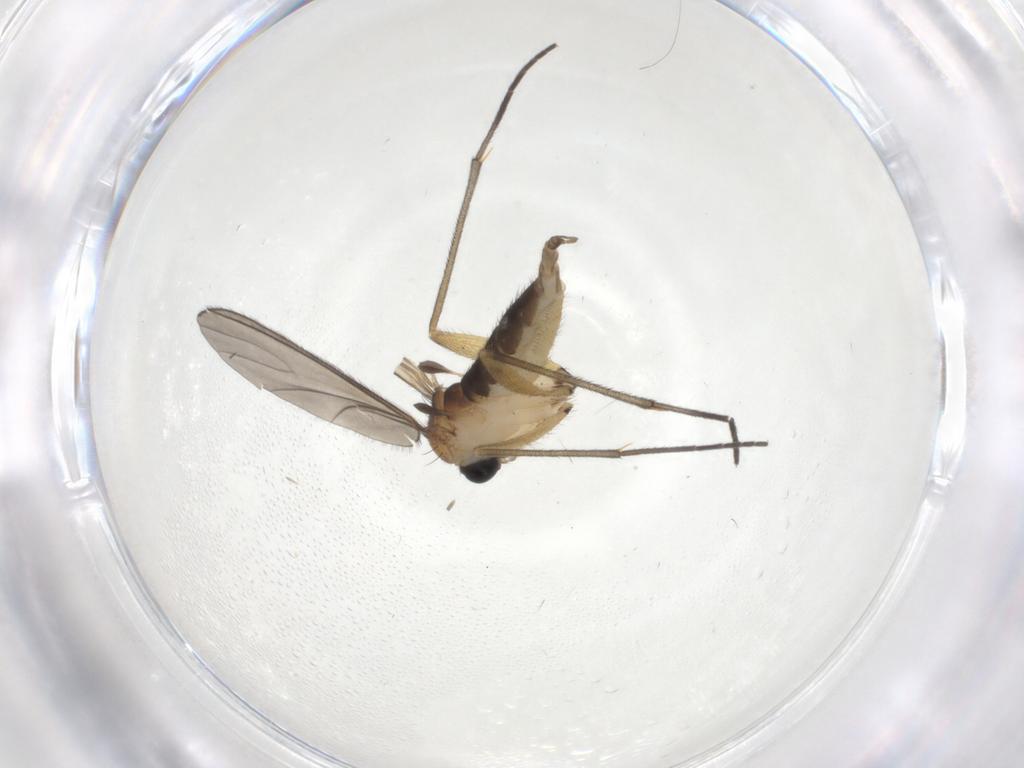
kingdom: Animalia
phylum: Arthropoda
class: Insecta
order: Diptera
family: Sciaridae
